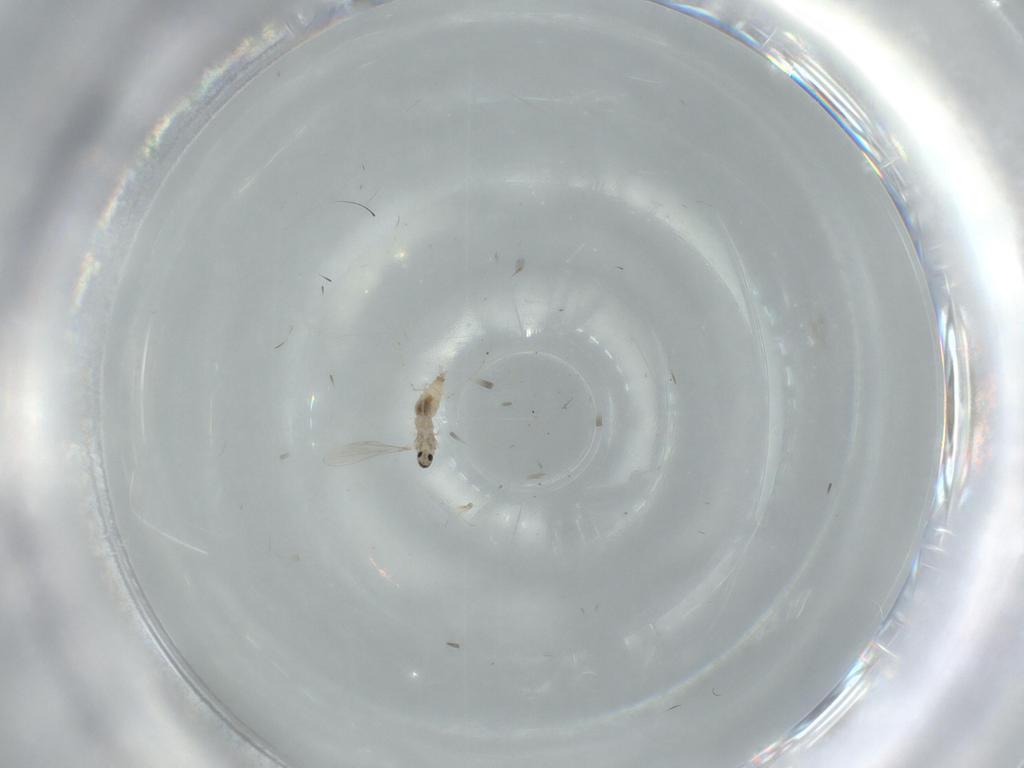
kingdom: Animalia
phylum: Arthropoda
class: Insecta
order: Diptera
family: Cecidomyiidae
